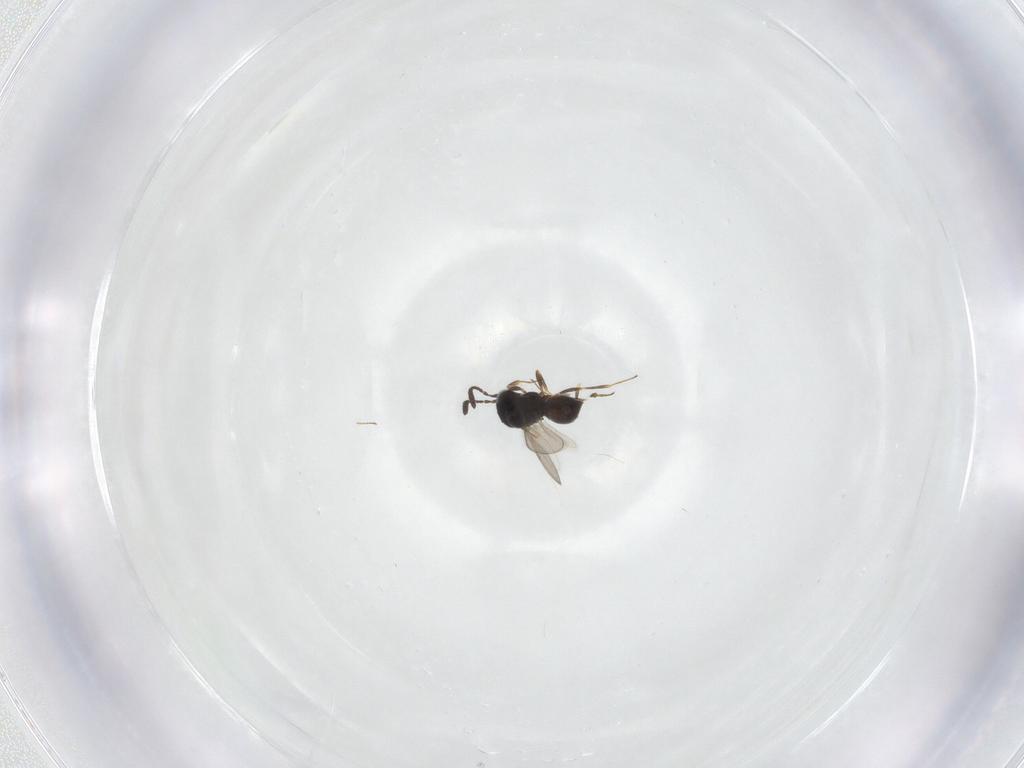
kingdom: Animalia
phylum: Arthropoda
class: Insecta
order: Hymenoptera
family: Scelionidae
